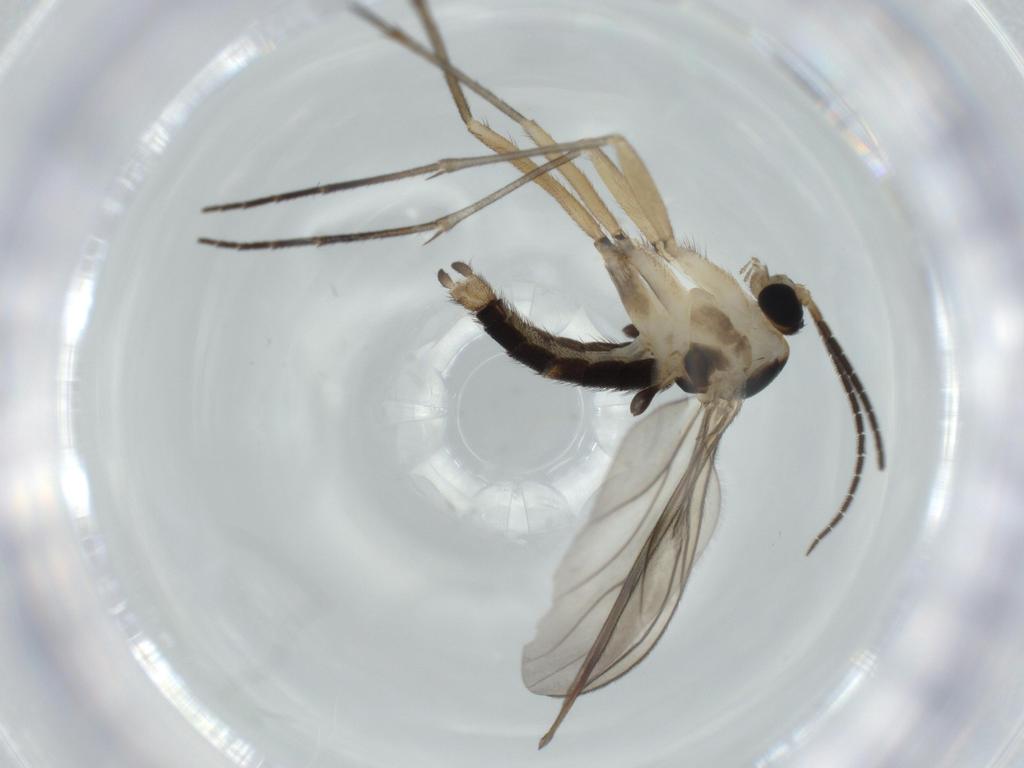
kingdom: Animalia
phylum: Arthropoda
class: Insecta
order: Diptera
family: Sciaridae
